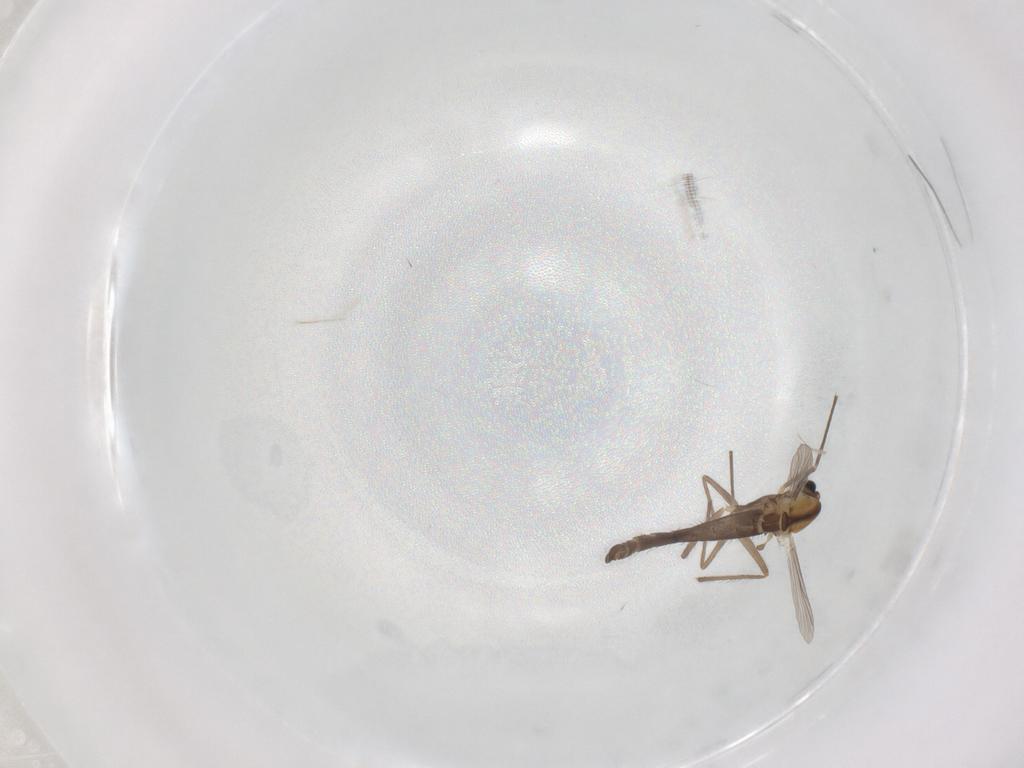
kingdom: Animalia
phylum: Arthropoda
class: Insecta
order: Diptera
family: Chironomidae
